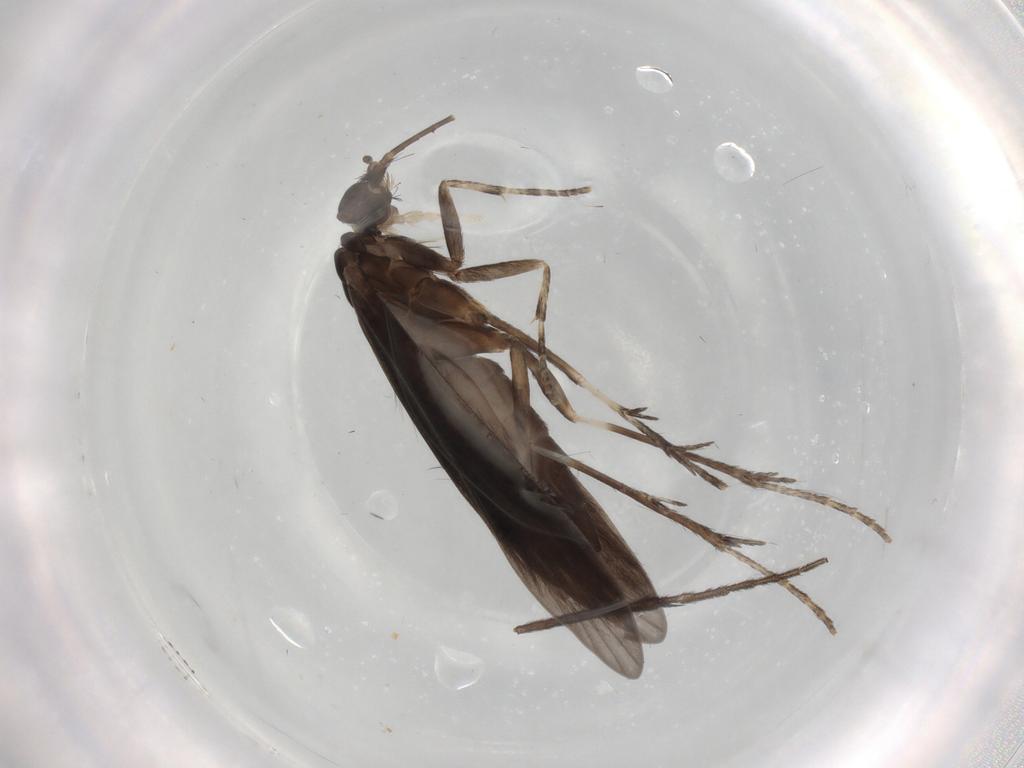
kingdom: Animalia
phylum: Arthropoda
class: Insecta
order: Trichoptera
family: Xiphocentronidae
